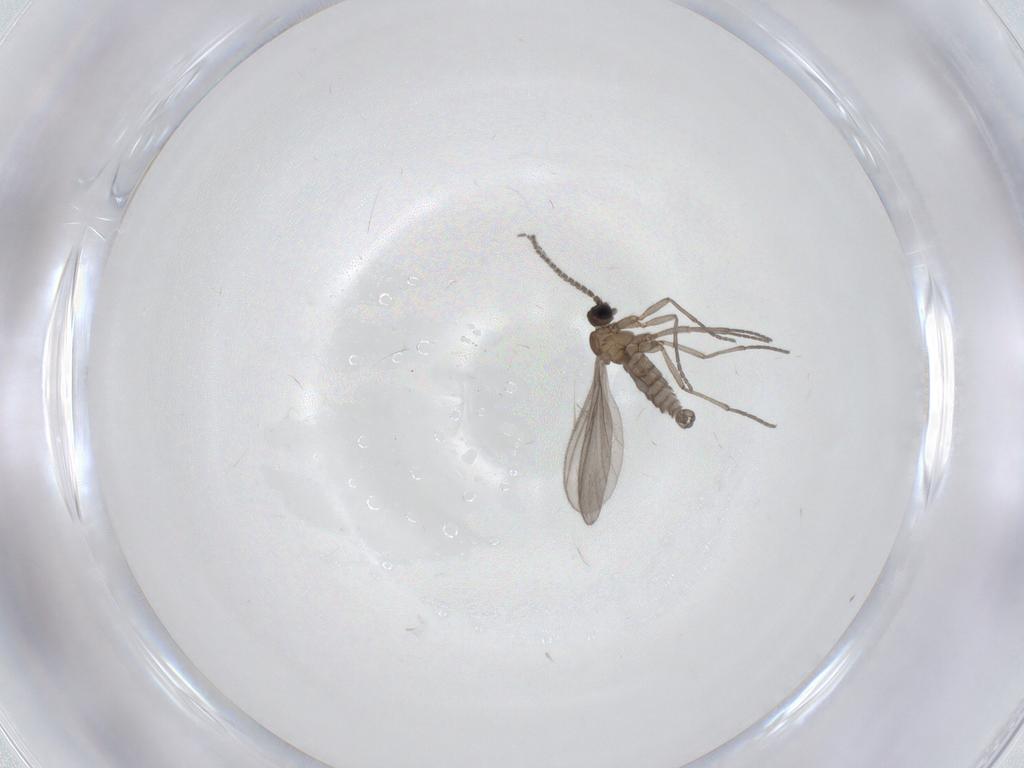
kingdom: Animalia
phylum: Arthropoda
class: Insecta
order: Diptera
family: Sciaridae
